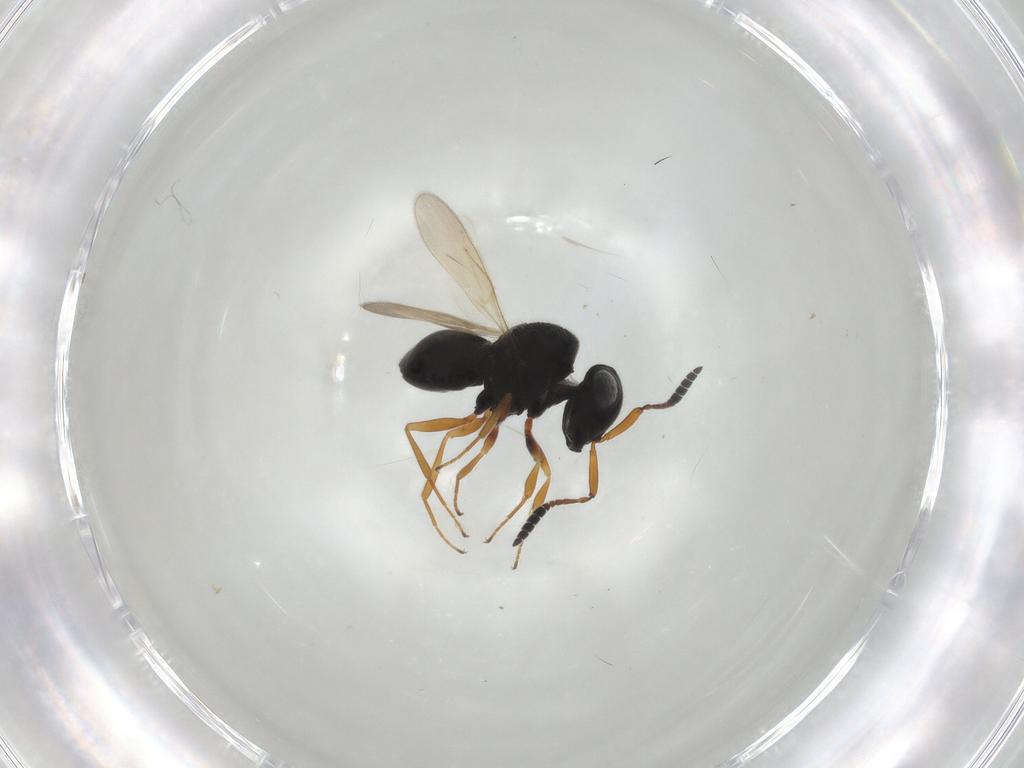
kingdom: Animalia
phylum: Arthropoda
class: Insecta
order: Hymenoptera
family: Scelionidae
